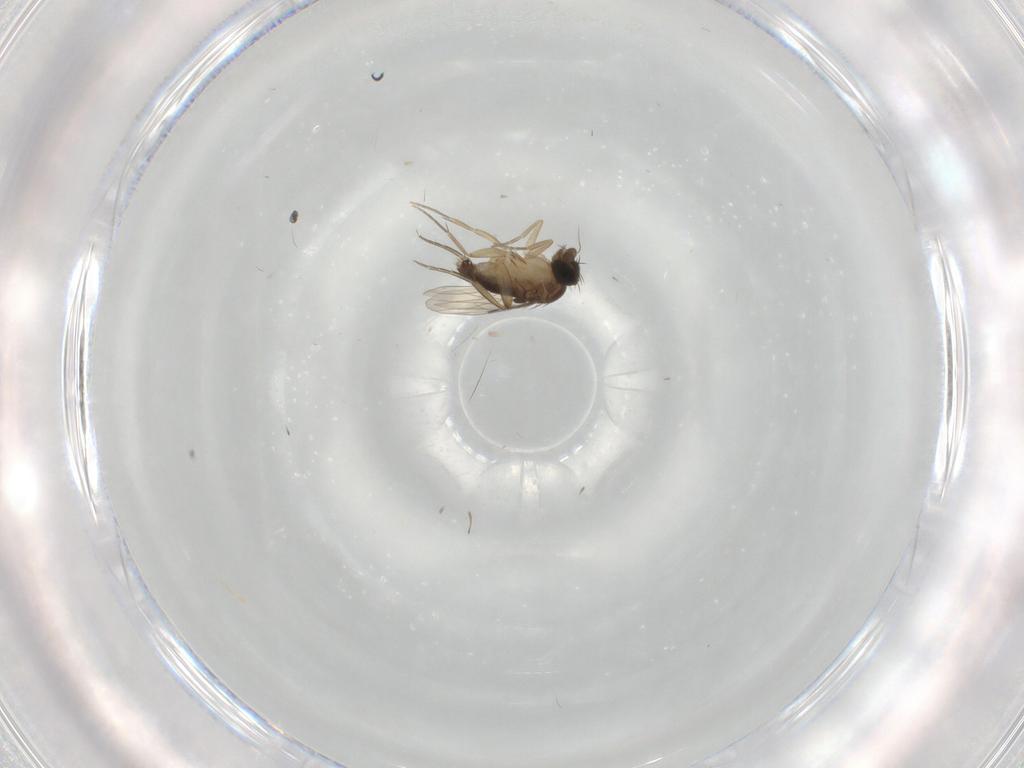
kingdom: Animalia
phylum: Arthropoda
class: Insecta
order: Diptera
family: Phoridae
